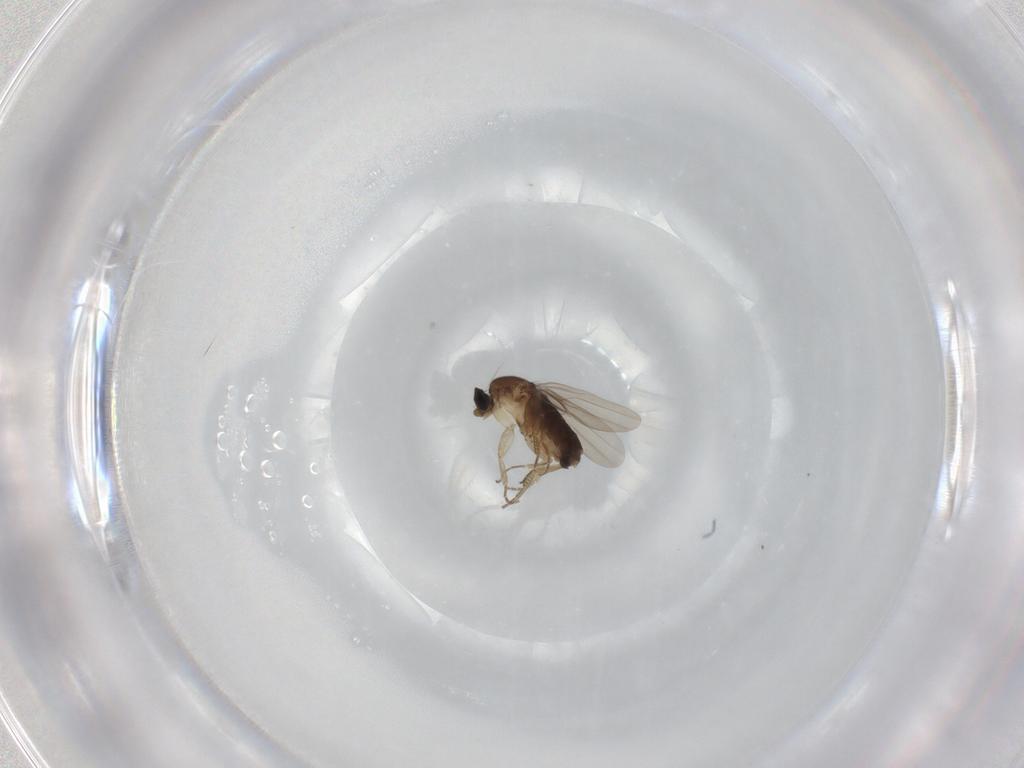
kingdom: Animalia
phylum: Arthropoda
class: Insecta
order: Diptera
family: Phoridae
